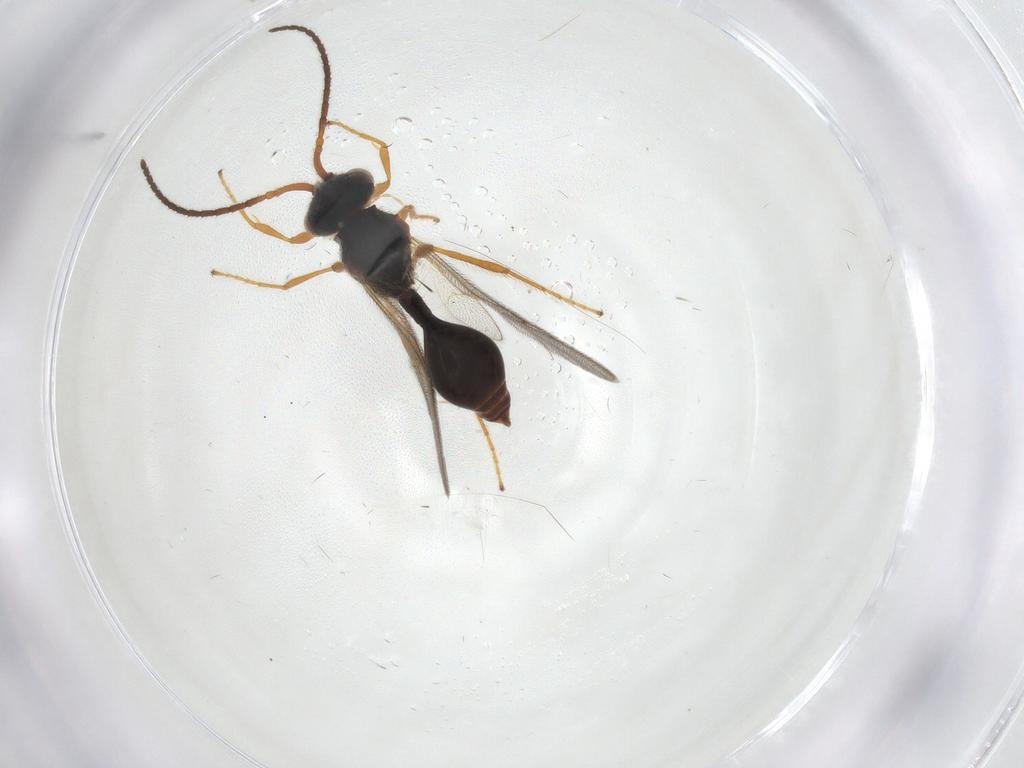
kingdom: Animalia
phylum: Arthropoda
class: Insecta
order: Hymenoptera
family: Diapriidae
